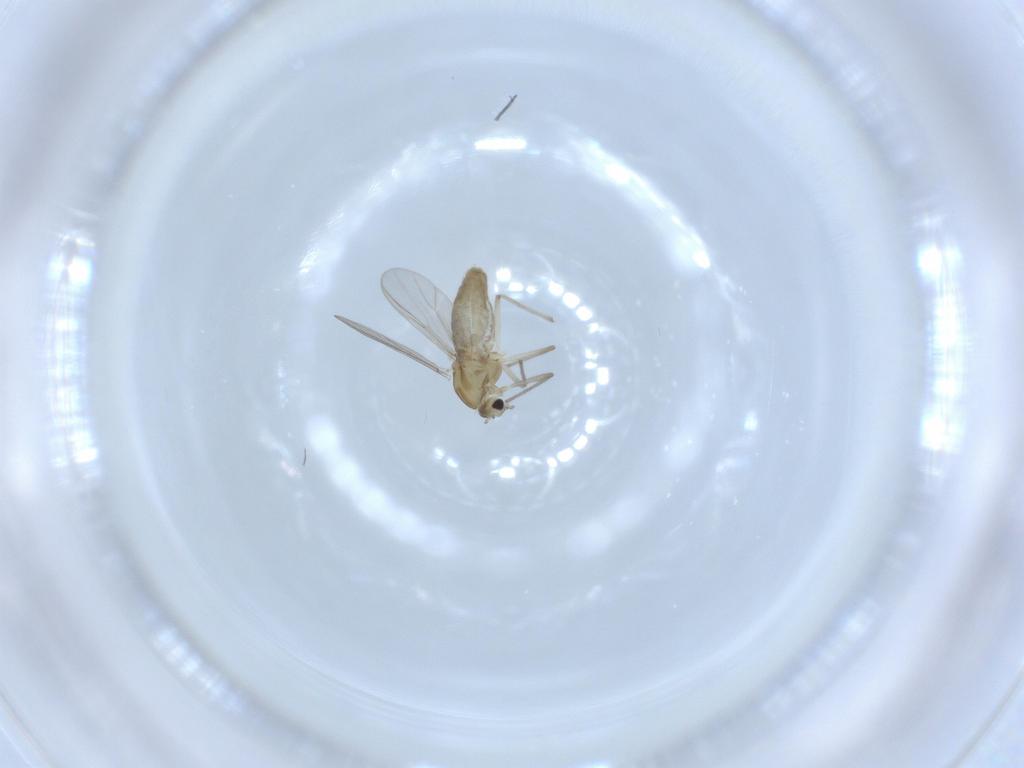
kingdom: Animalia
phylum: Arthropoda
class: Insecta
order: Diptera
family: Chironomidae
